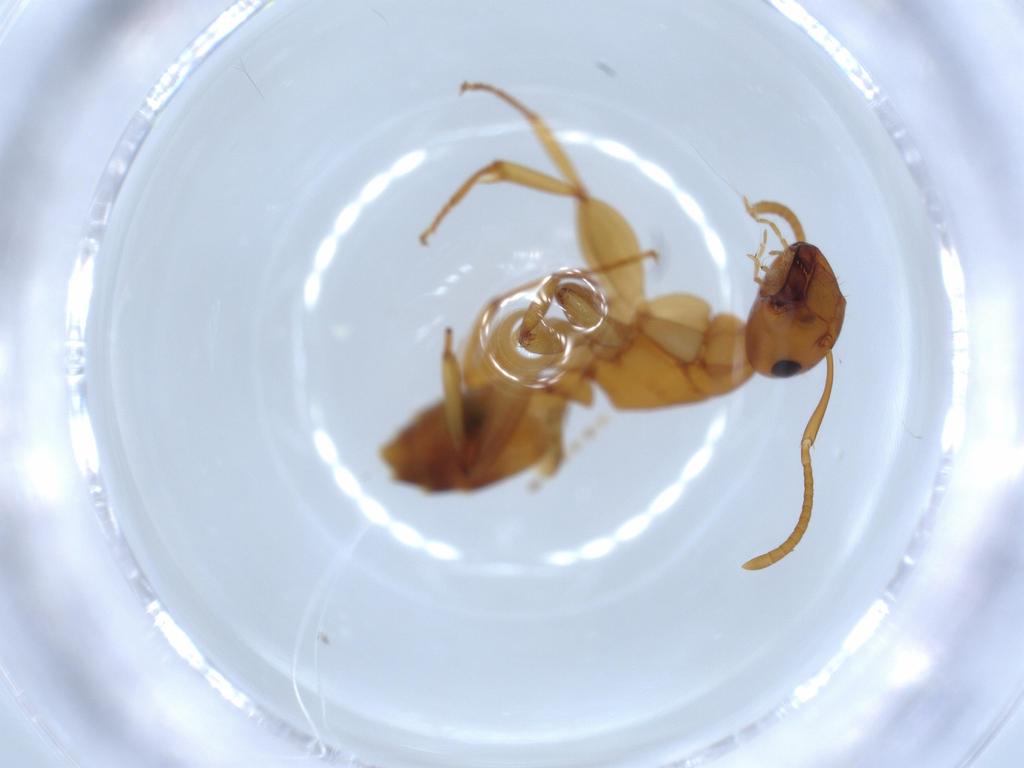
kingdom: Animalia
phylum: Arthropoda
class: Insecta
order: Hymenoptera
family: Formicidae
